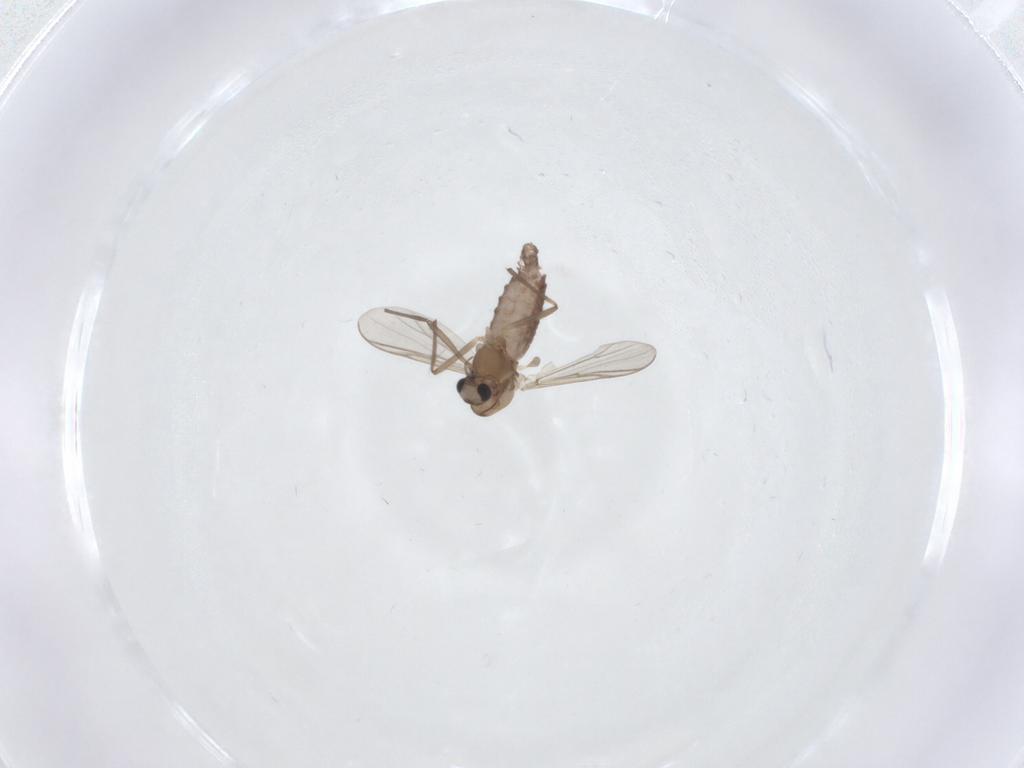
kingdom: Animalia
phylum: Arthropoda
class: Insecta
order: Diptera
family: Chironomidae
